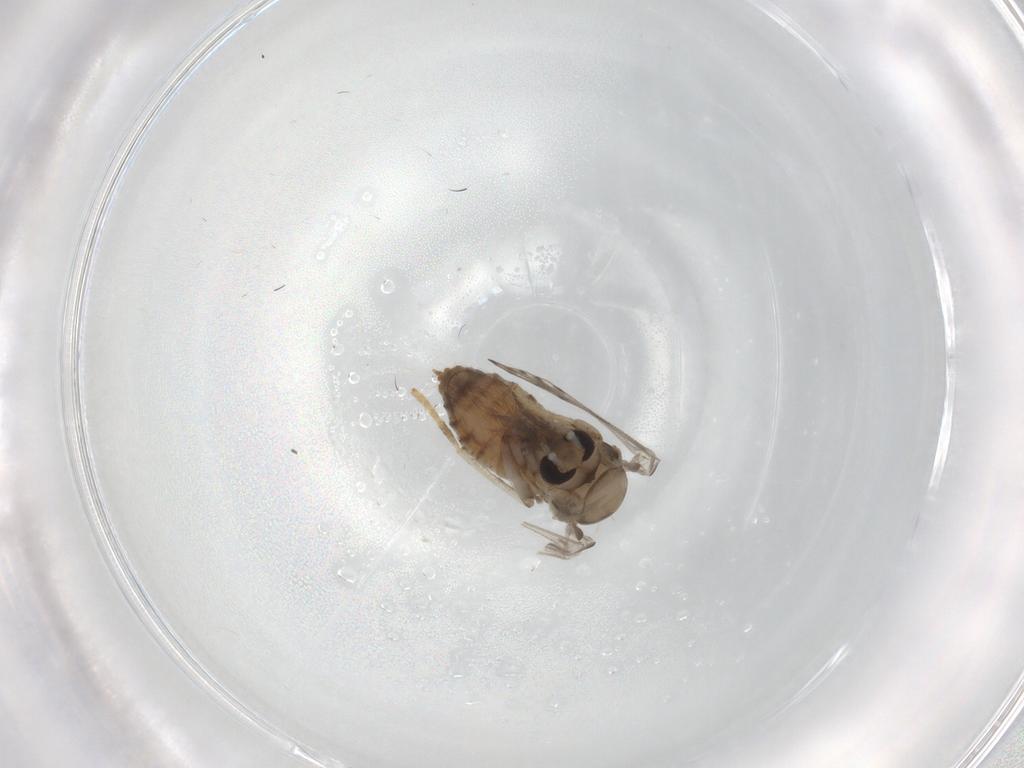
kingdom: Animalia
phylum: Arthropoda
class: Insecta
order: Diptera
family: Psychodidae
